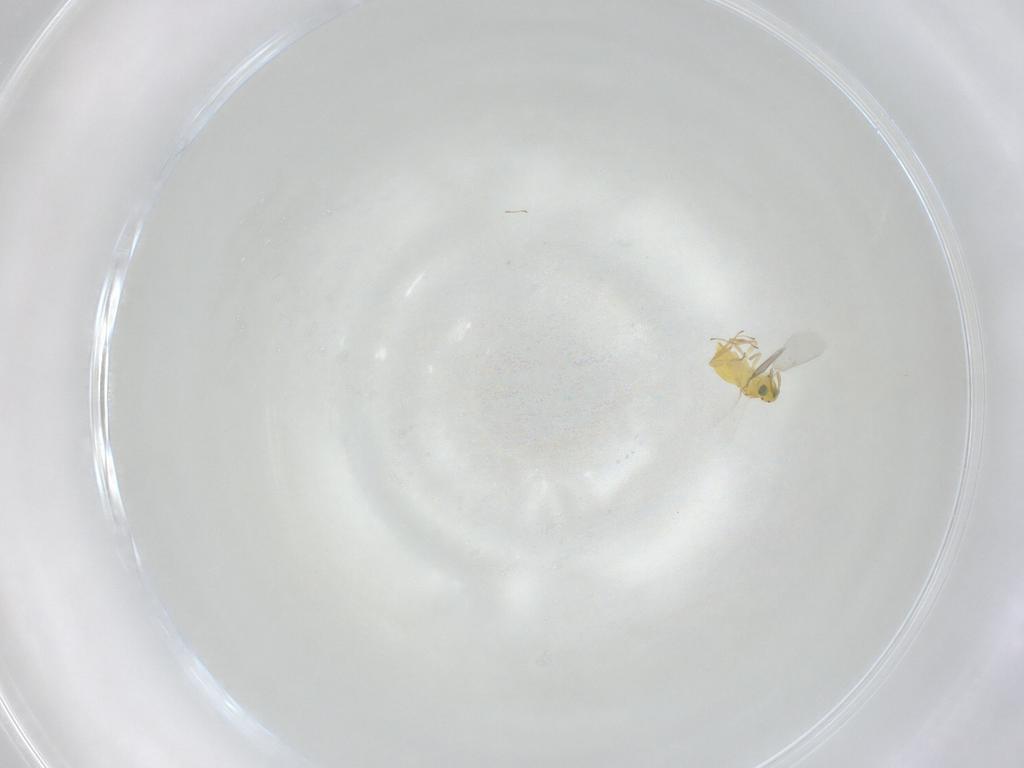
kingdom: Animalia
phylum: Arthropoda
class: Insecta
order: Hymenoptera
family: Aphelinidae
